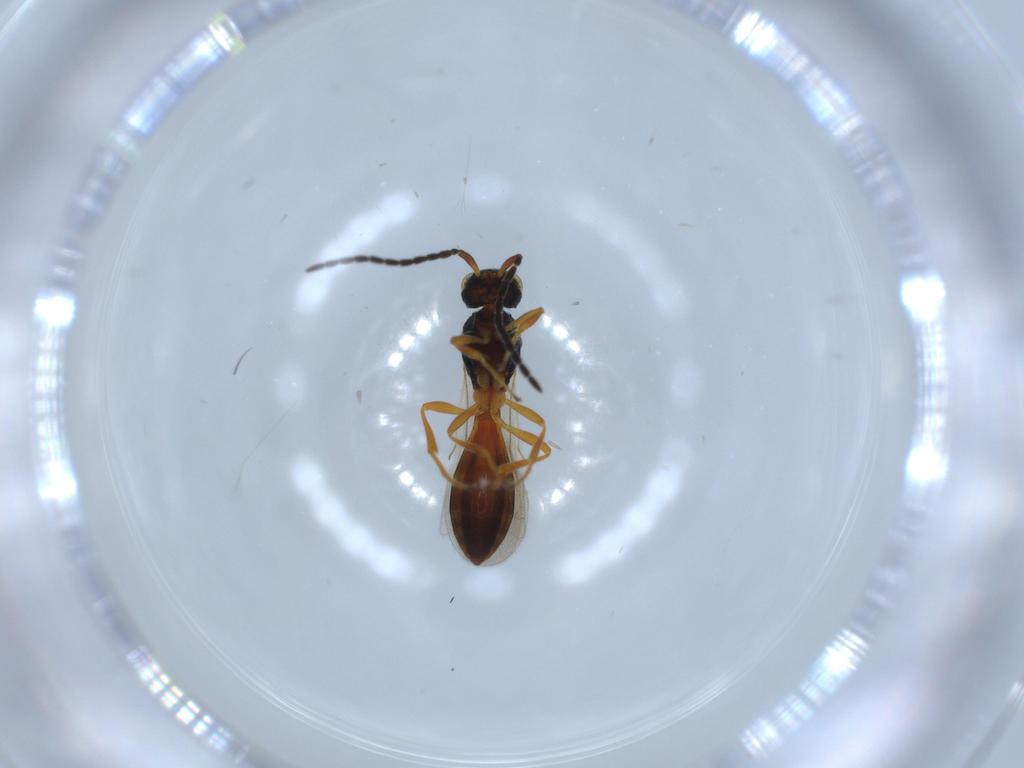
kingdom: Animalia
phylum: Arthropoda
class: Insecta
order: Hymenoptera
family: Scelionidae
